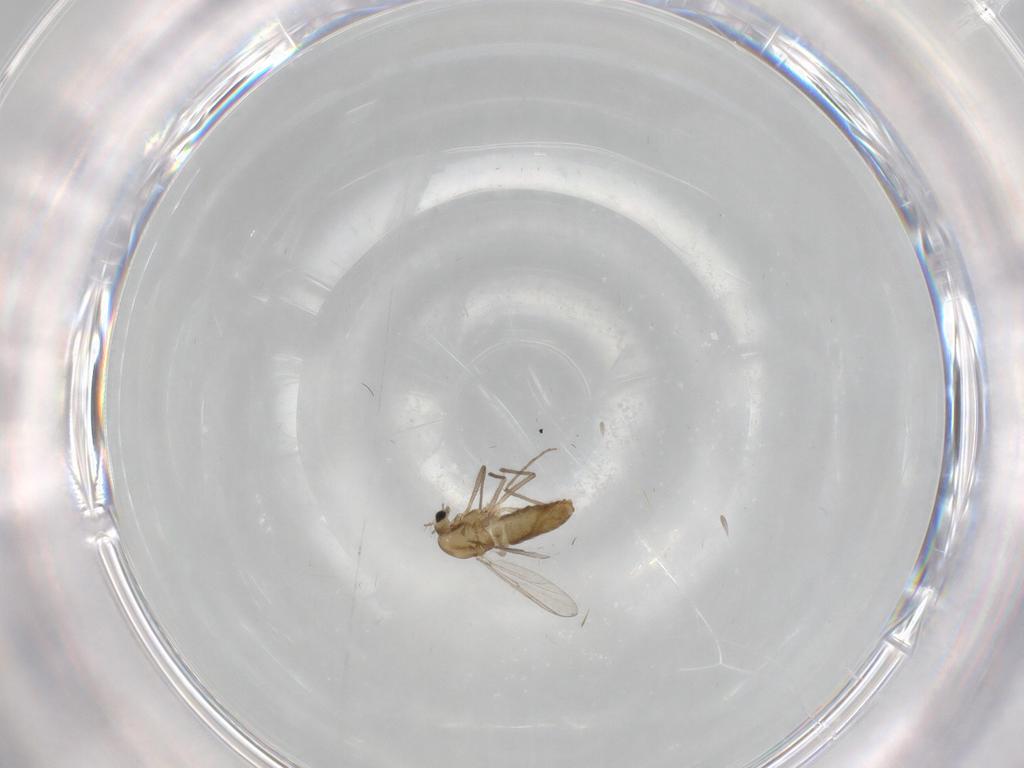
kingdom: Animalia
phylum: Arthropoda
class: Insecta
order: Diptera
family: Chironomidae
